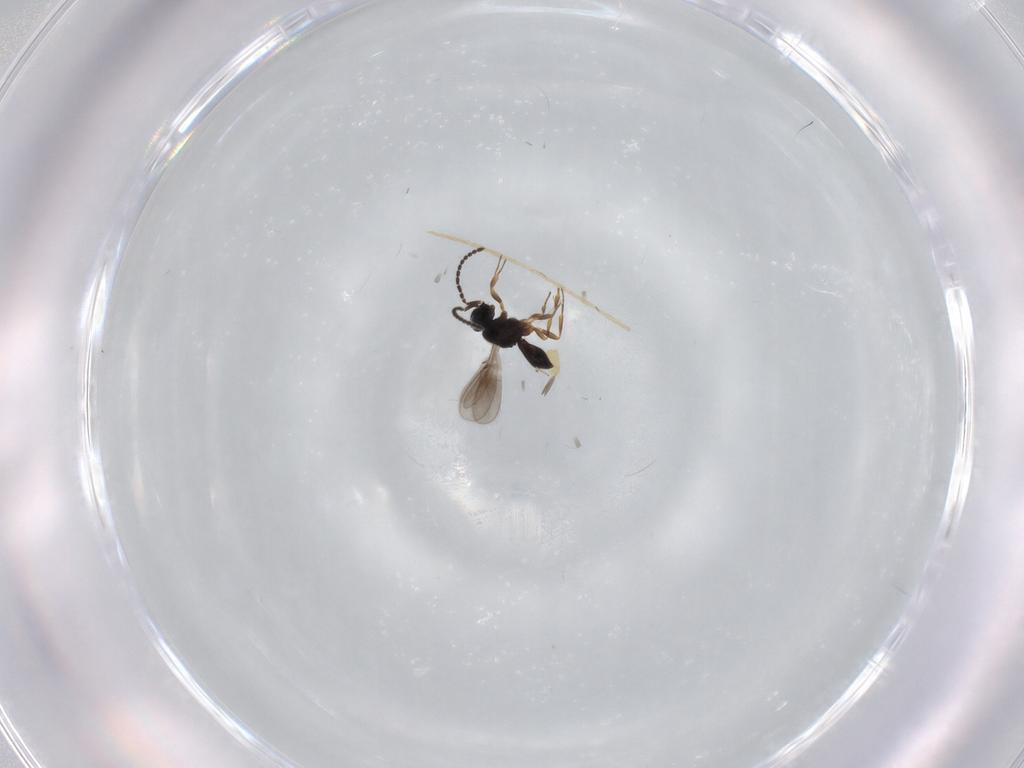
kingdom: Animalia
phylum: Arthropoda
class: Insecta
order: Hymenoptera
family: Scelionidae
